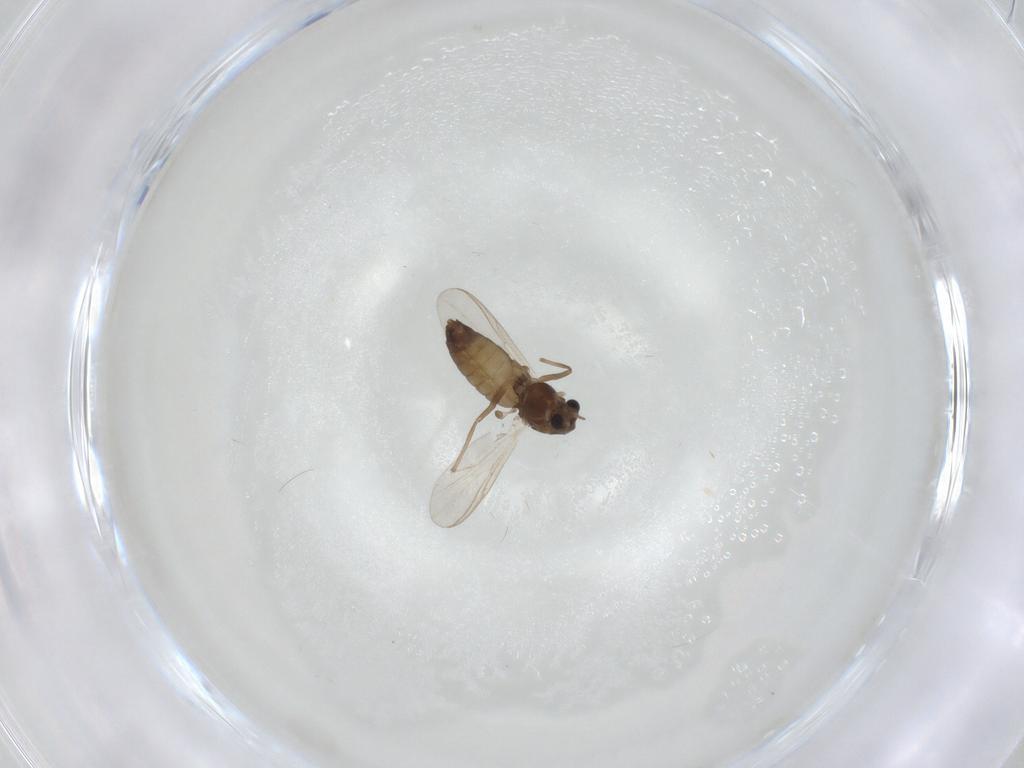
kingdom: Animalia
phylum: Arthropoda
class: Insecta
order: Diptera
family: Chironomidae
